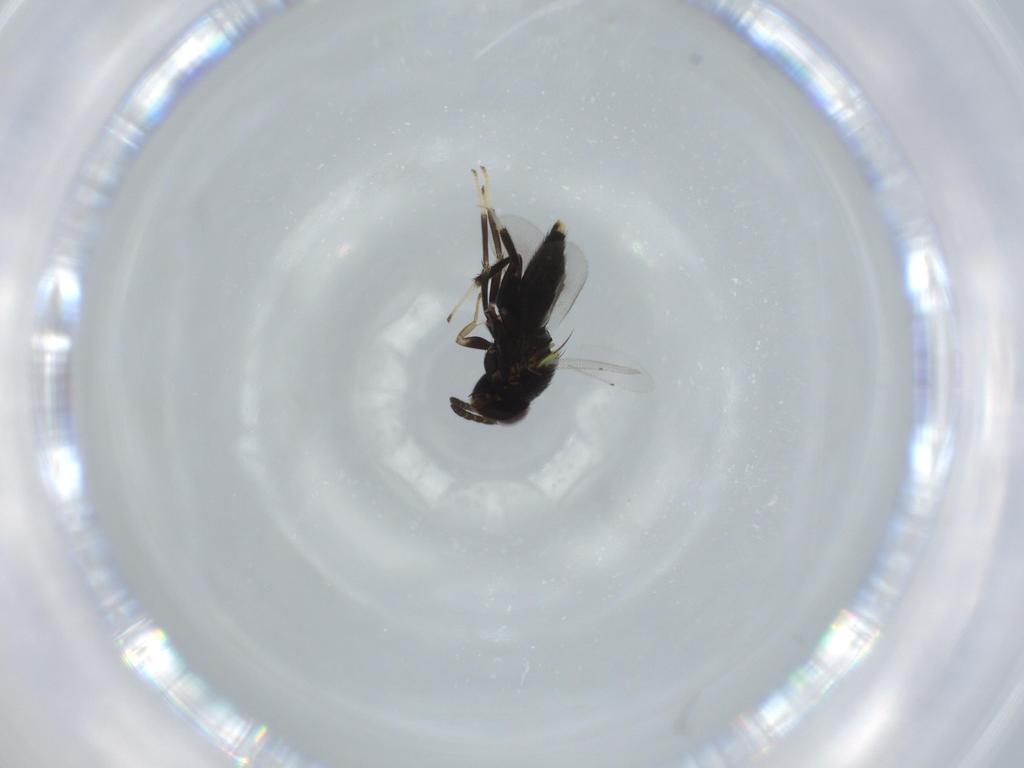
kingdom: Animalia
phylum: Arthropoda
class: Insecta
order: Hymenoptera
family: Aphelinidae
